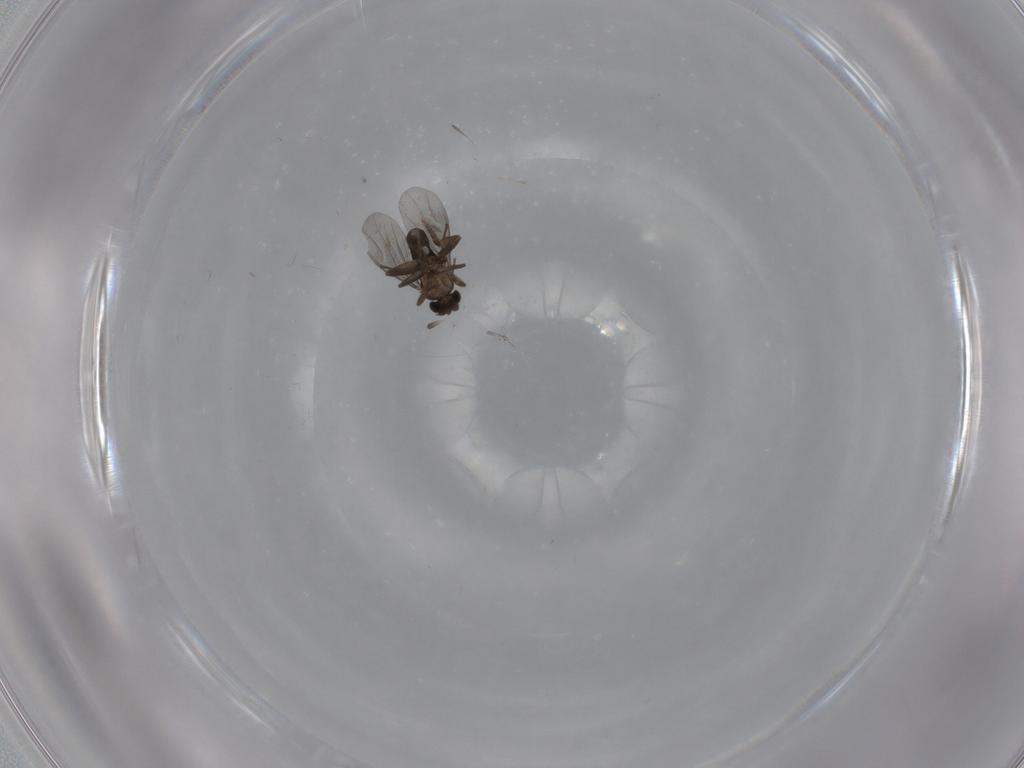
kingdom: Animalia
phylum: Arthropoda
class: Insecta
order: Diptera
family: Phoridae
